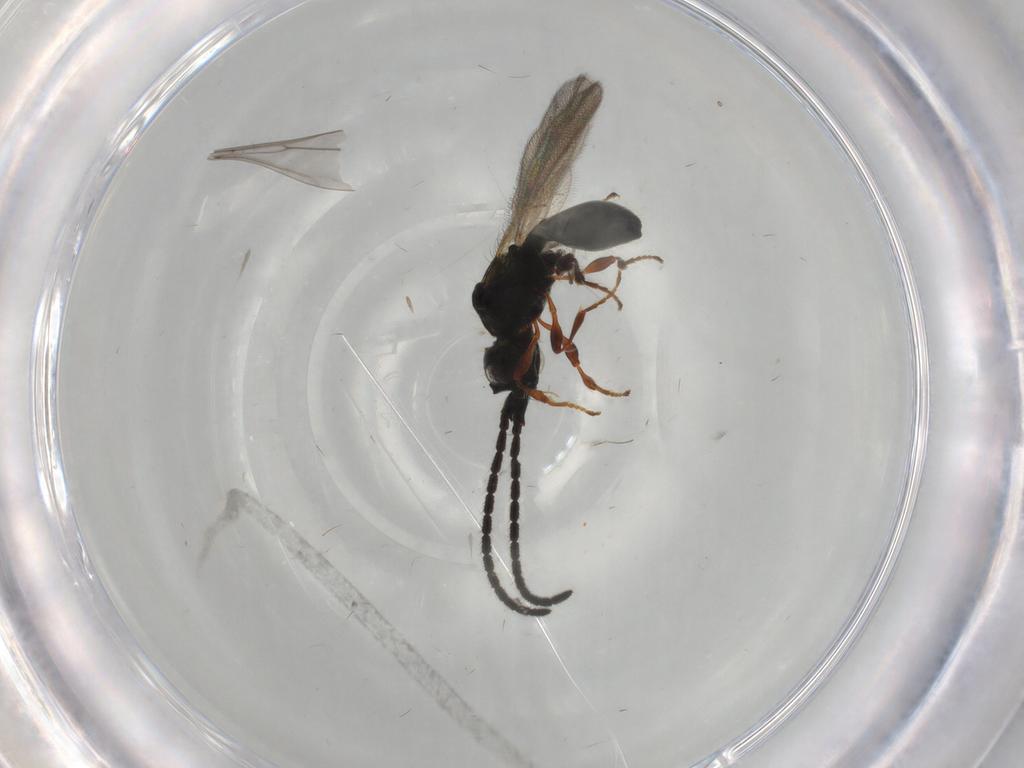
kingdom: Animalia
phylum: Arthropoda
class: Insecta
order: Hymenoptera
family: Diapriidae
